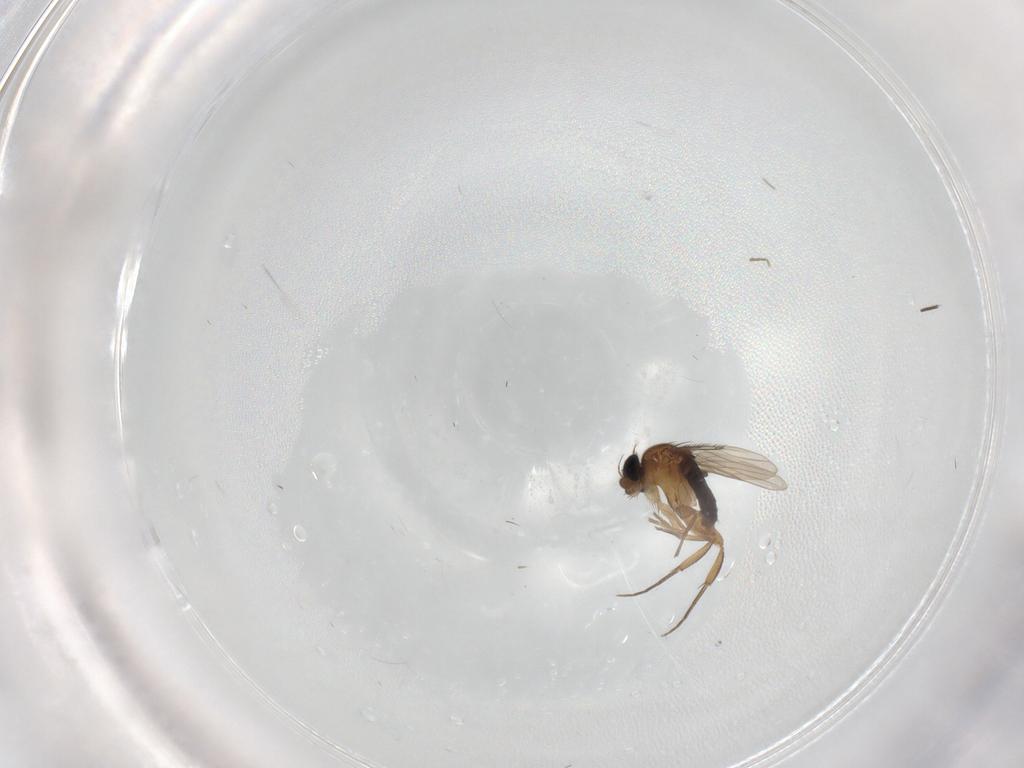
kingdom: Animalia
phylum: Arthropoda
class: Insecta
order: Diptera
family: Phoridae
